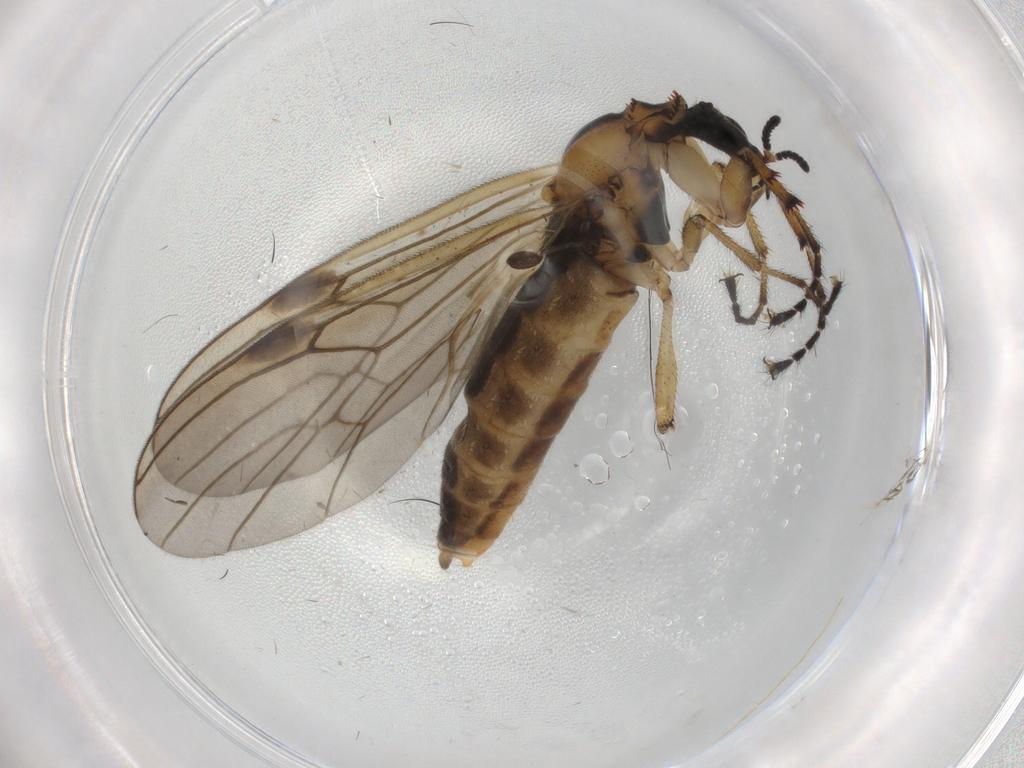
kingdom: Animalia
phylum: Arthropoda
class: Insecta
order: Diptera
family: Bibionidae
